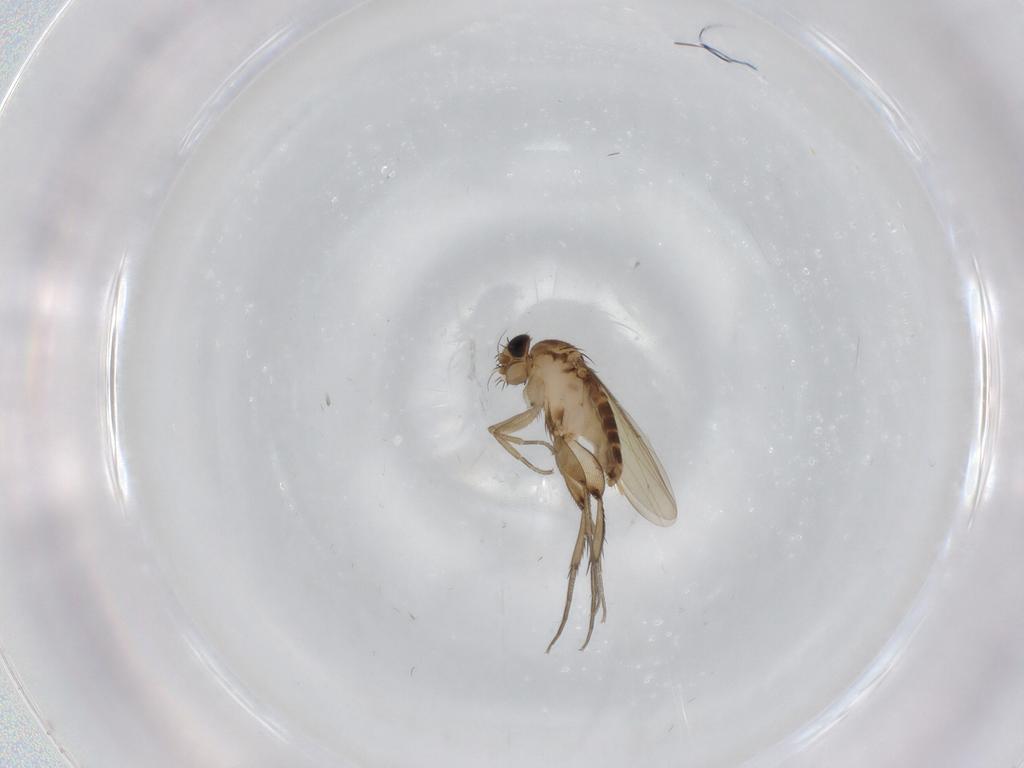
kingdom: Animalia
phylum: Arthropoda
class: Insecta
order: Diptera
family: Phoridae
